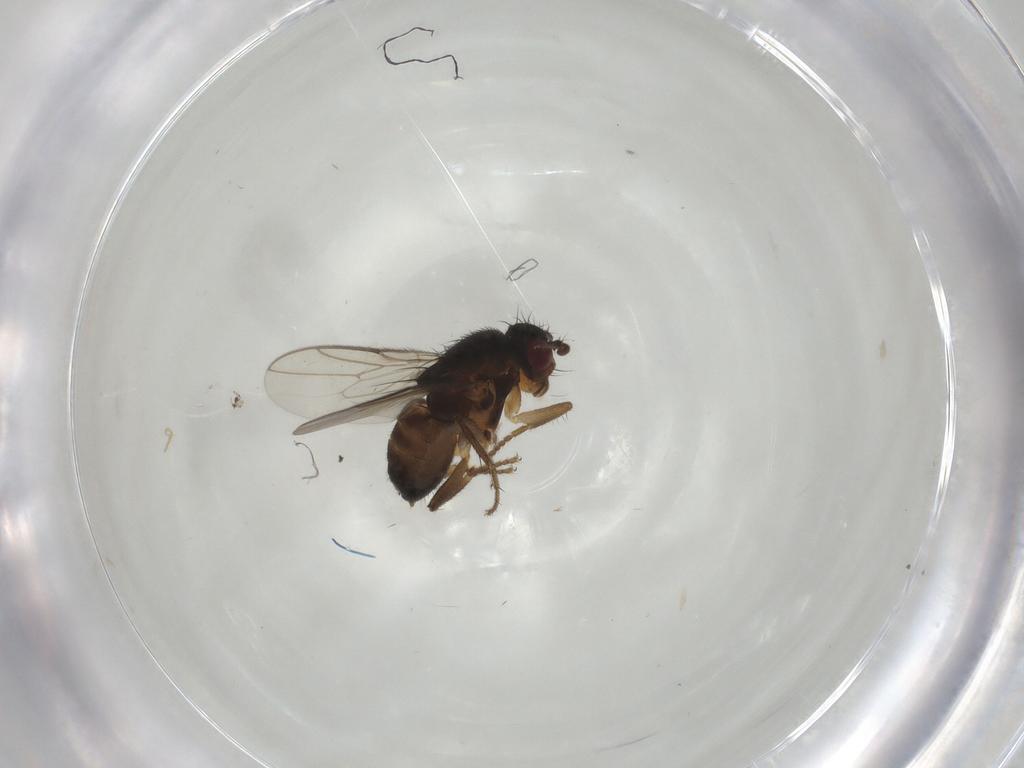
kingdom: Animalia
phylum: Arthropoda
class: Insecta
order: Diptera
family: Sphaeroceridae
